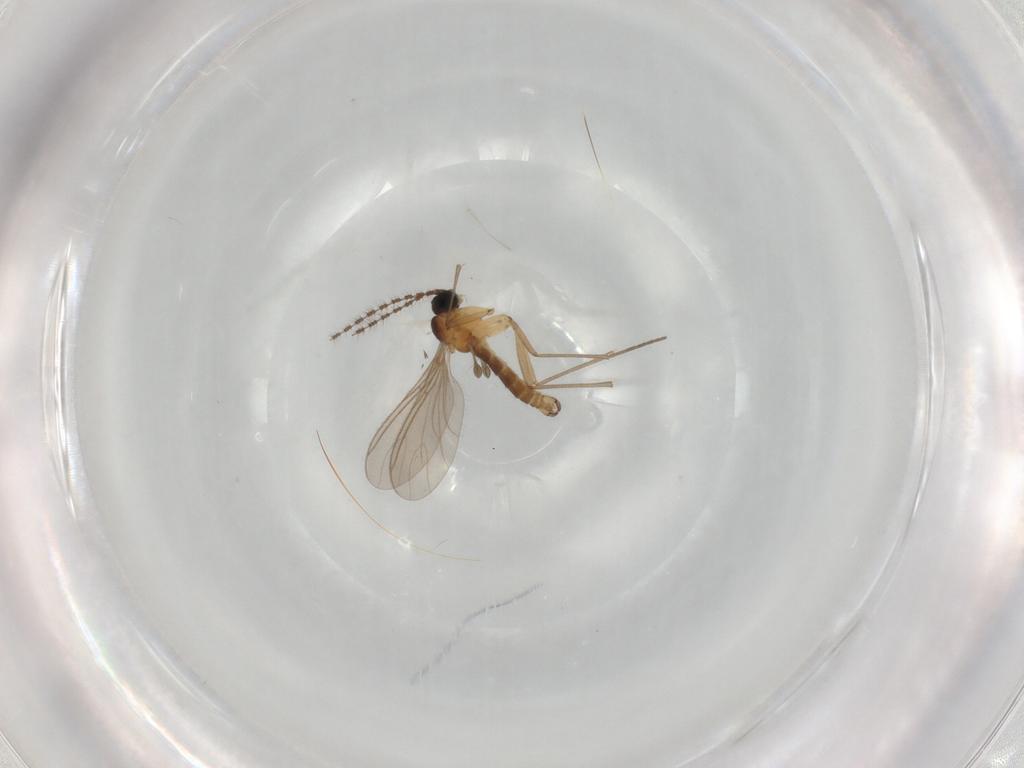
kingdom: Animalia
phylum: Arthropoda
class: Insecta
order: Diptera
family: Sciaridae
